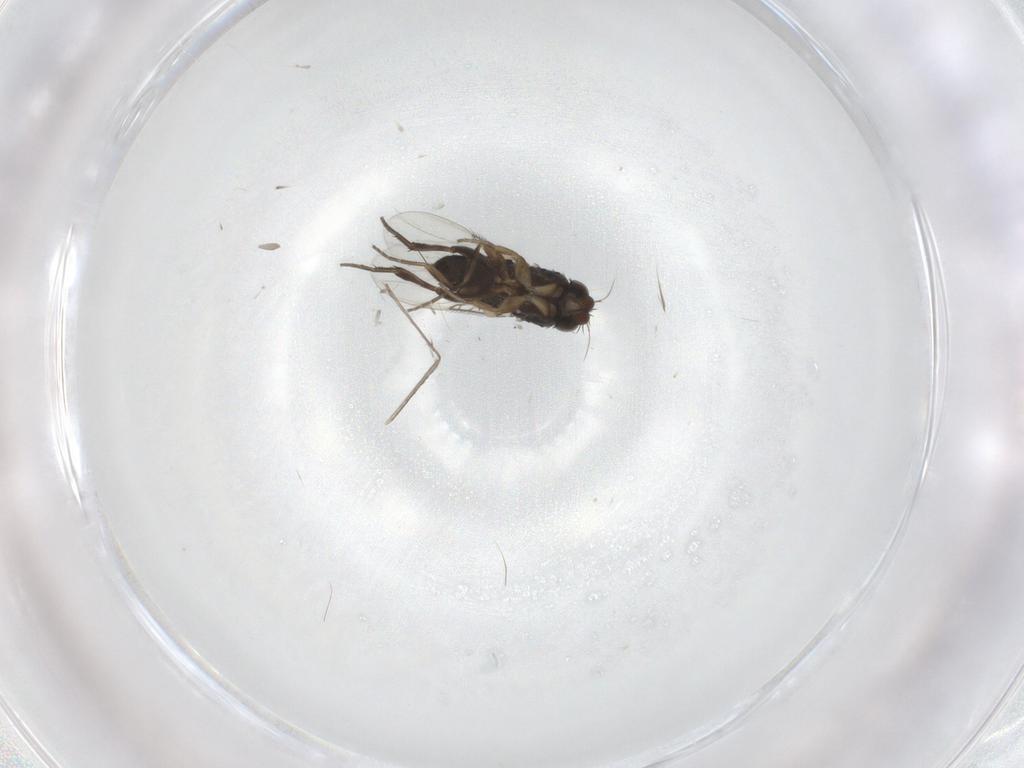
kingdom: Animalia
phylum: Arthropoda
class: Insecta
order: Diptera
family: Phoridae
